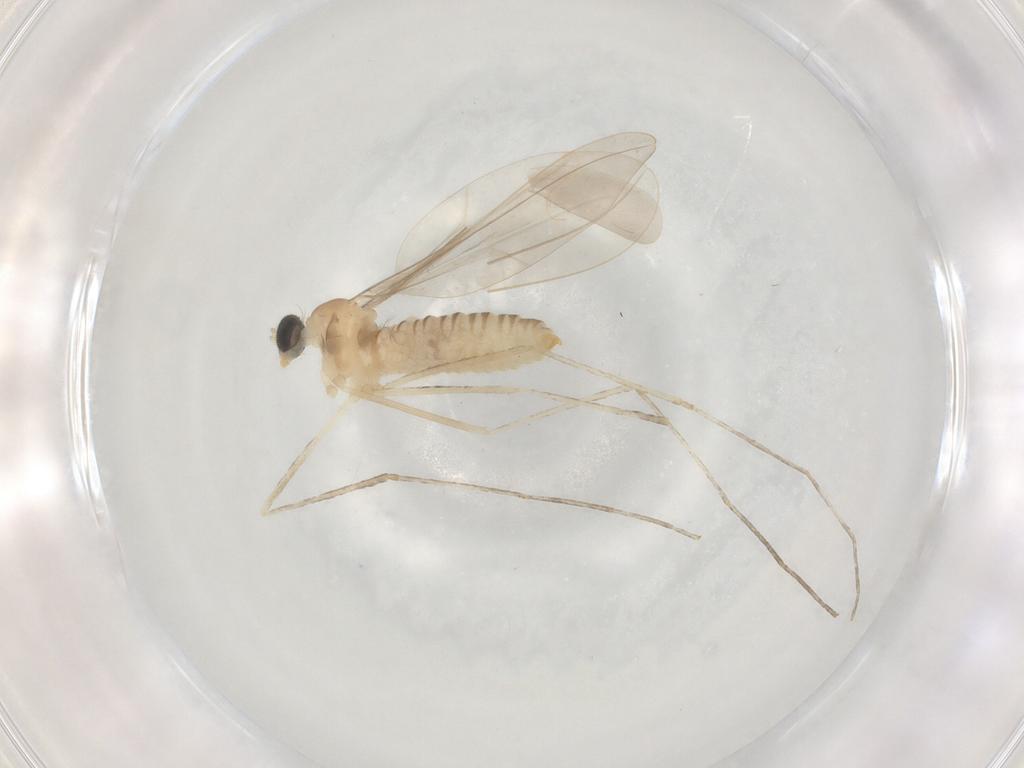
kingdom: Animalia
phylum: Arthropoda
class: Insecta
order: Diptera
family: Cecidomyiidae
